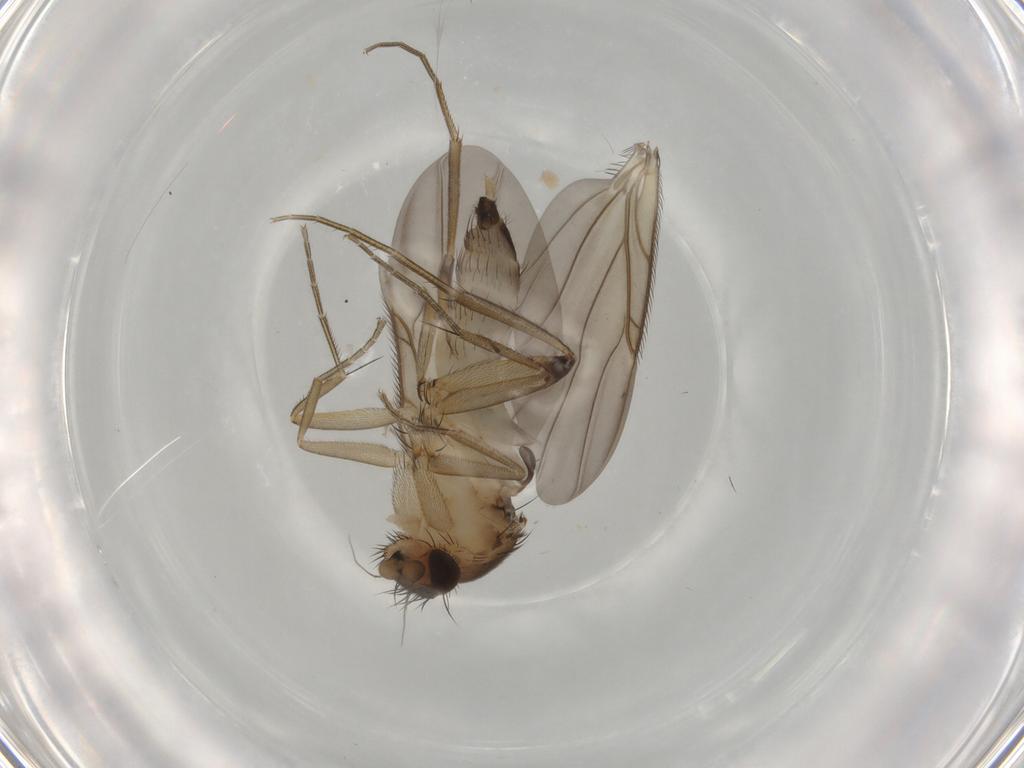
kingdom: Animalia
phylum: Arthropoda
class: Insecta
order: Diptera
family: Phoridae
